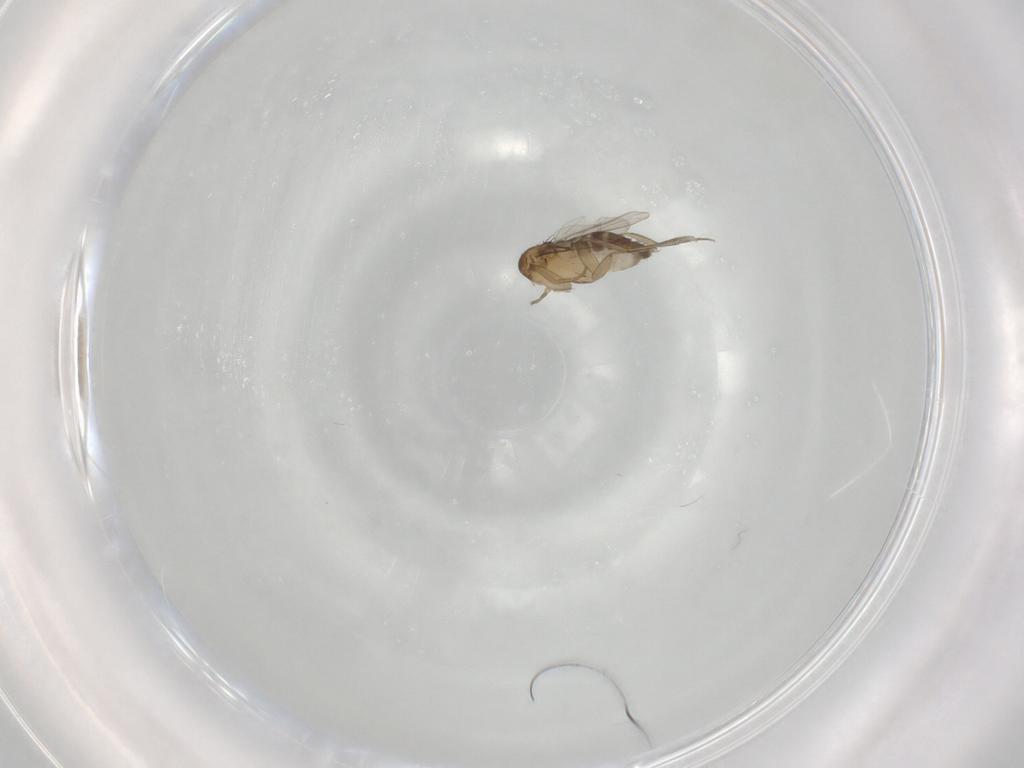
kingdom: Animalia
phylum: Arthropoda
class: Insecta
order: Diptera
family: Phoridae
